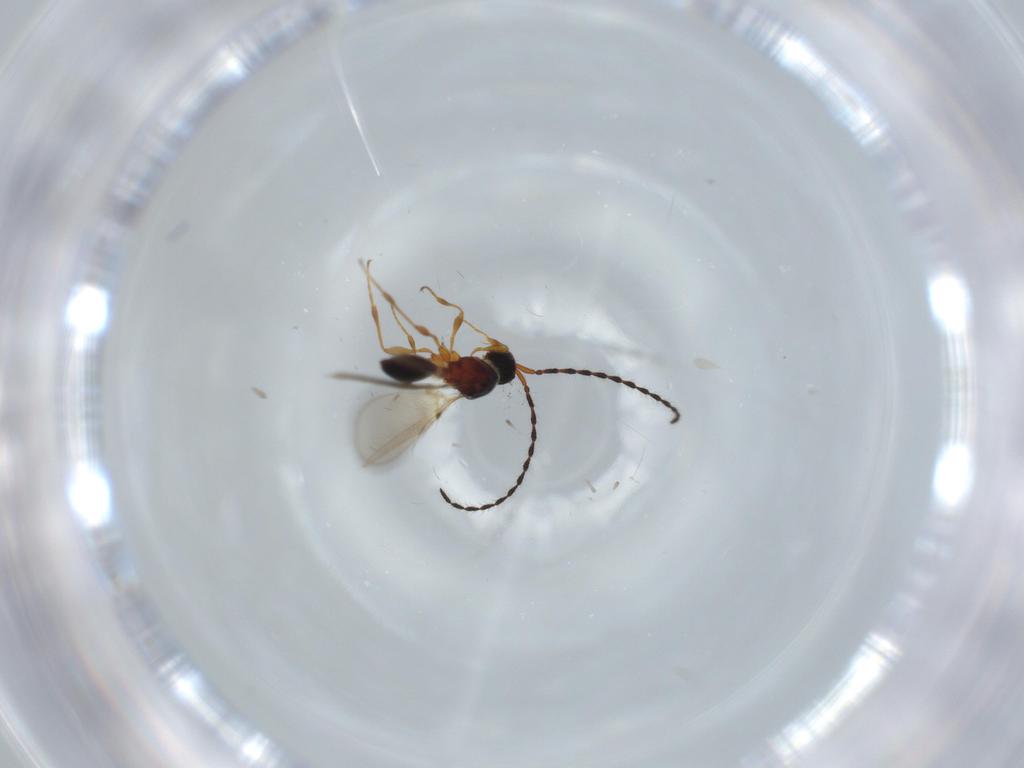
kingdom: Animalia
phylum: Arthropoda
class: Insecta
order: Hymenoptera
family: Diapriidae
